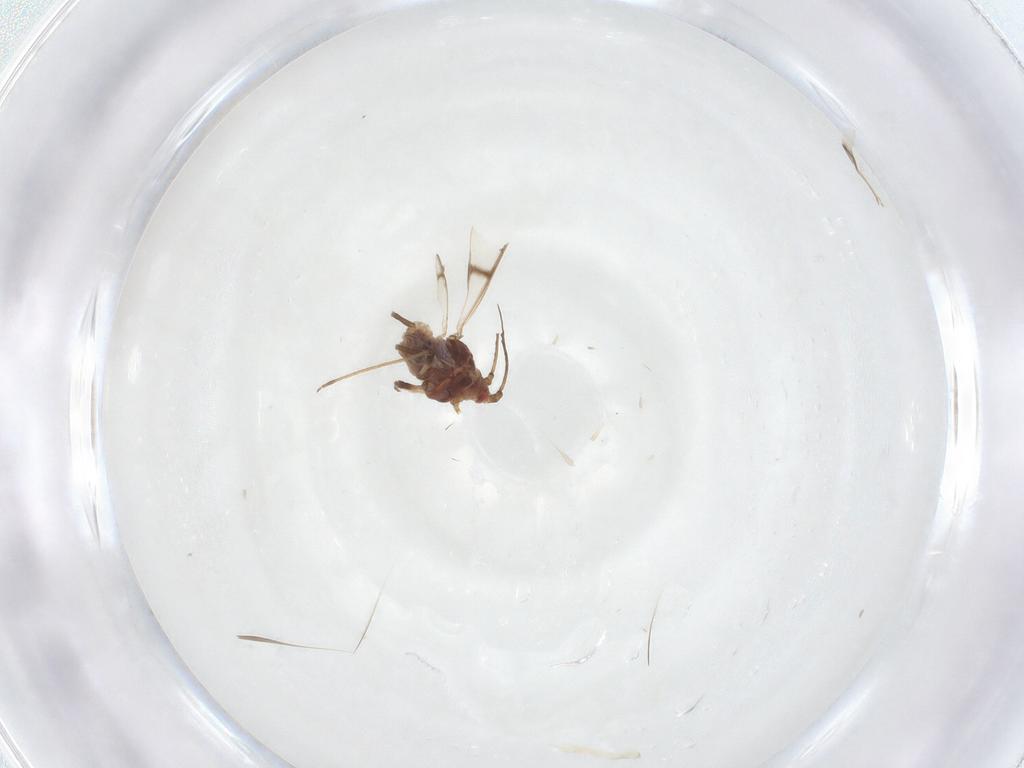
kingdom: Animalia
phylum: Arthropoda
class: Insecta
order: Hemiptera
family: Aphididae
